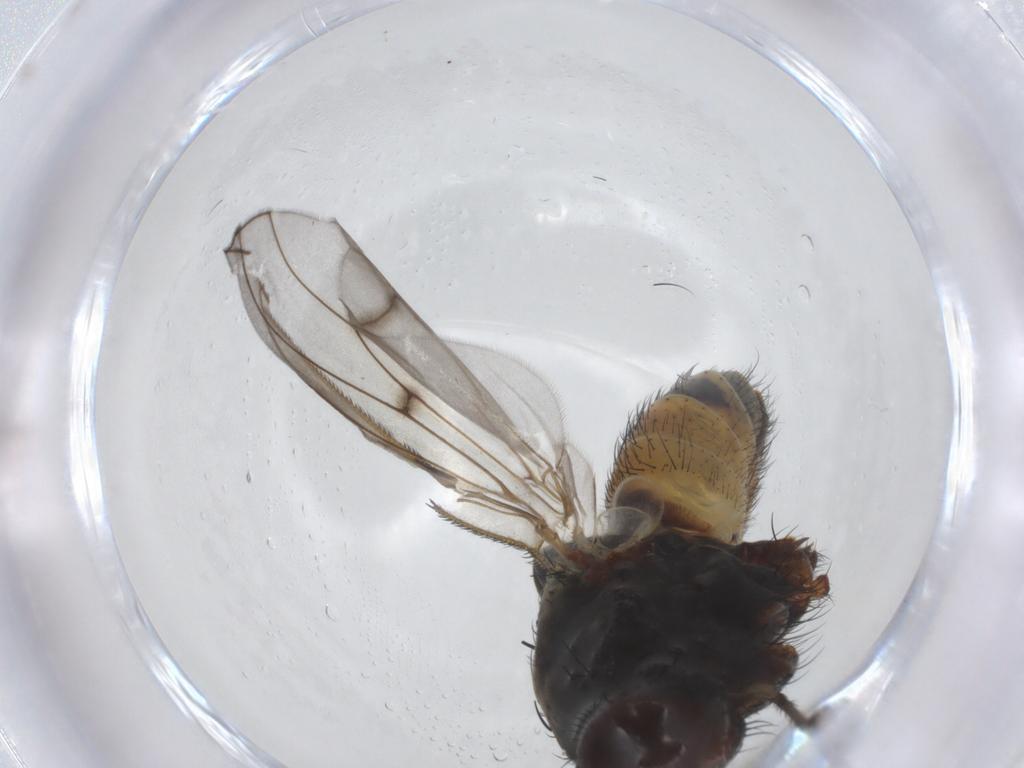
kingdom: Animalia
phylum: Arthropoda
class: Insecta
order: Diptera
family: Muscidae
